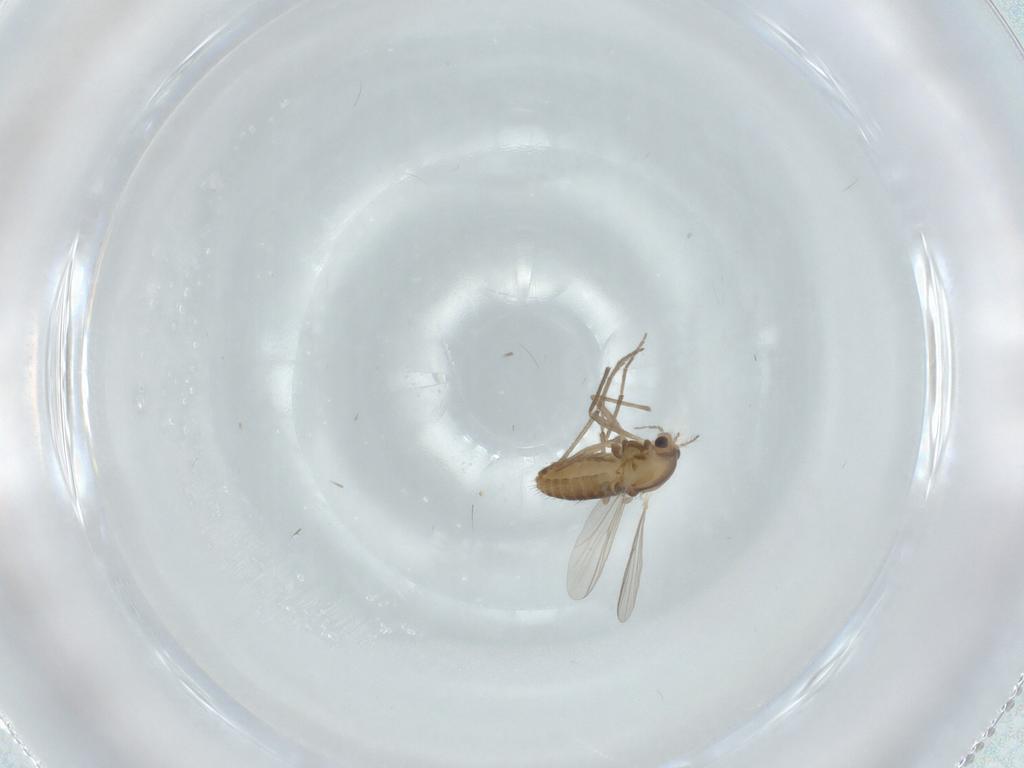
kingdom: Animalia
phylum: Arthropoda
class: Insecta
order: Diptera
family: Chironomidae
